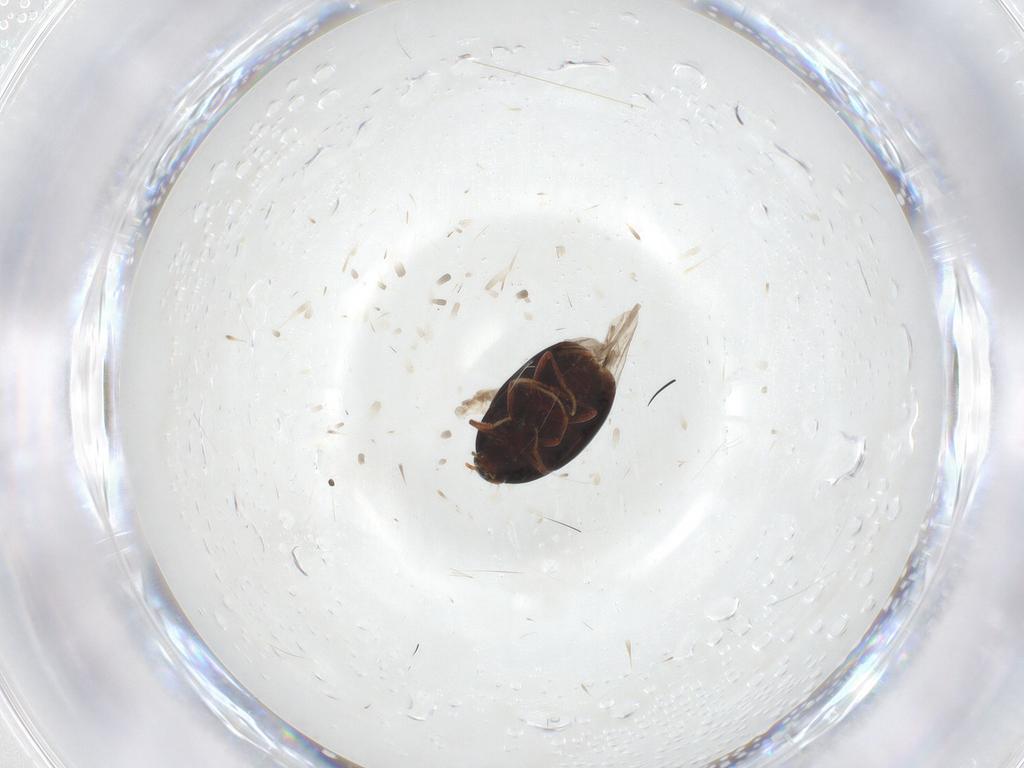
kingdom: Animalia
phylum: Arthropoda
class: Insecta
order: Coleoptera
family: Staphylinidae
